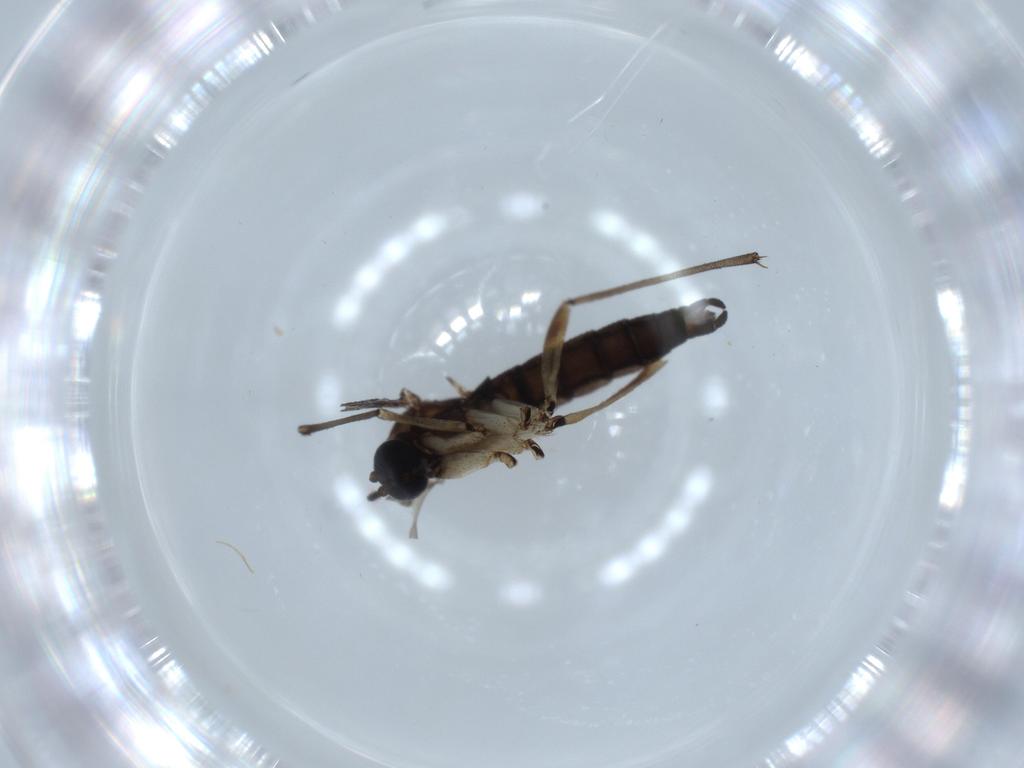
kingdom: Animalia
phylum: Arthropoda
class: Insecta
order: Diptera
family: Sciaridae
